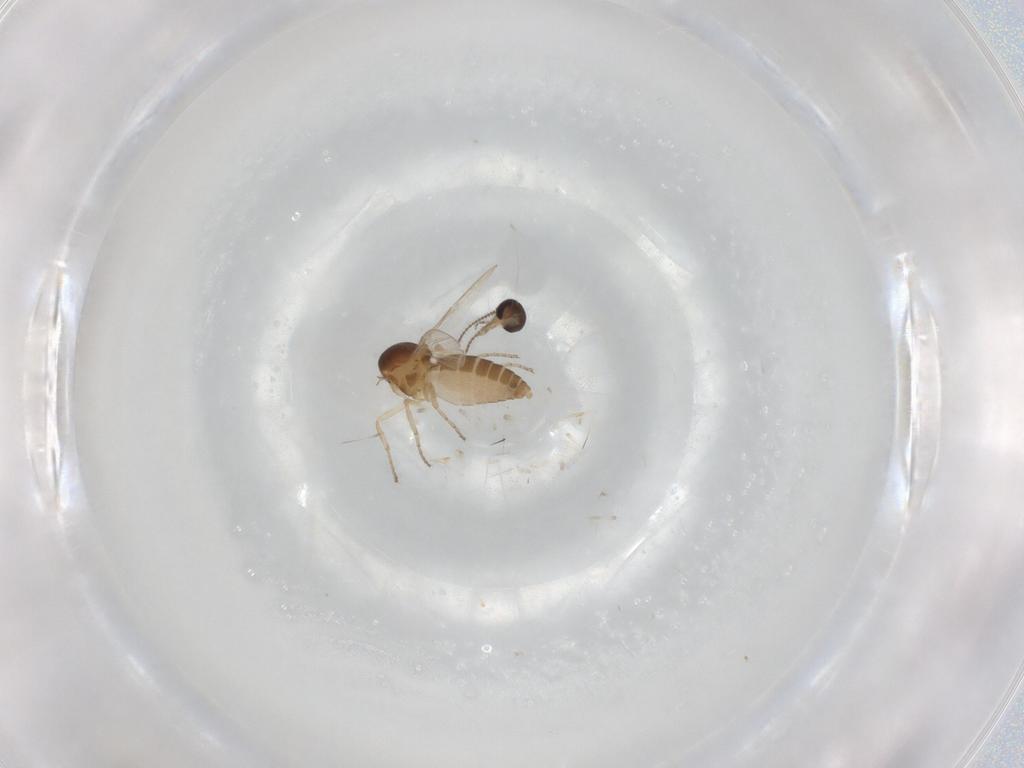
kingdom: Animalia
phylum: Arthropoda
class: Insecta
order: Diptera
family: Ceratopogonidae
